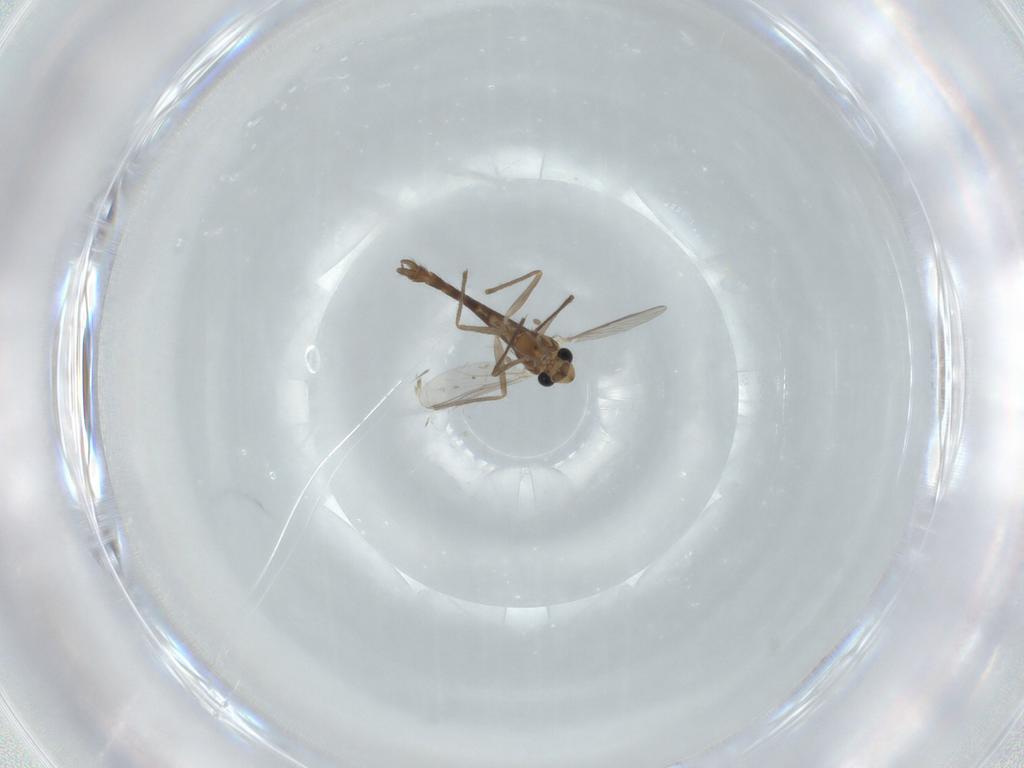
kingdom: Animalia
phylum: Arthropoda
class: Insecta
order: Diptera
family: Chironomidae
